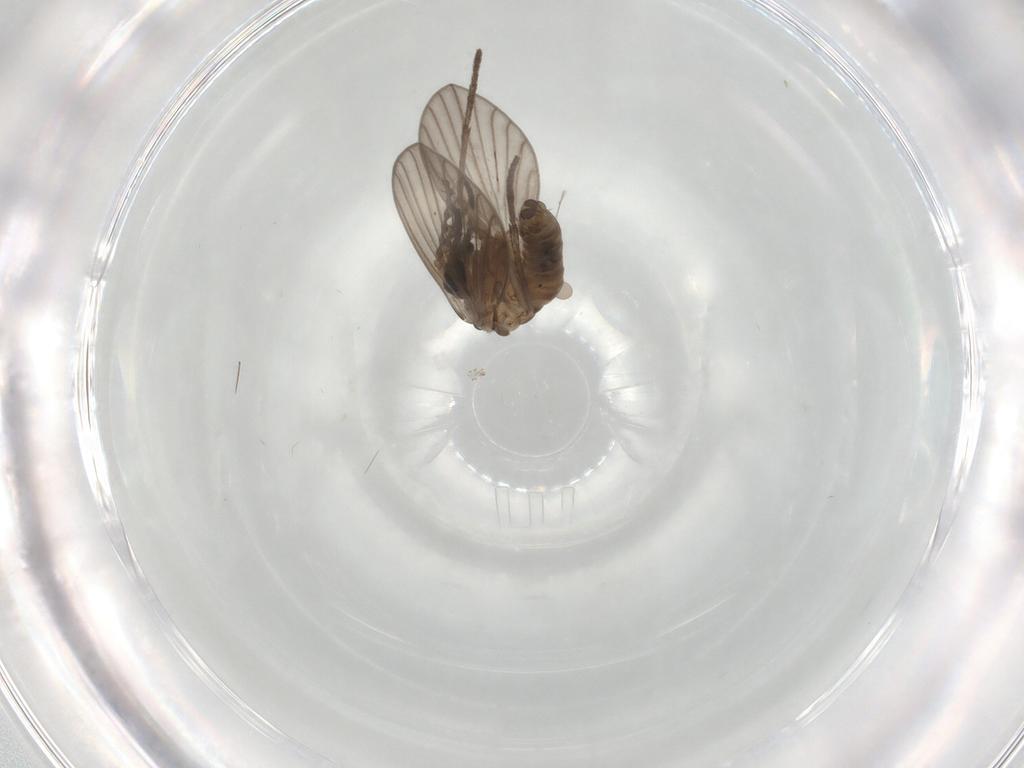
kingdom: Animalia
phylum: Arthropoda
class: Insecta
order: Diptera
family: Psychodidae
